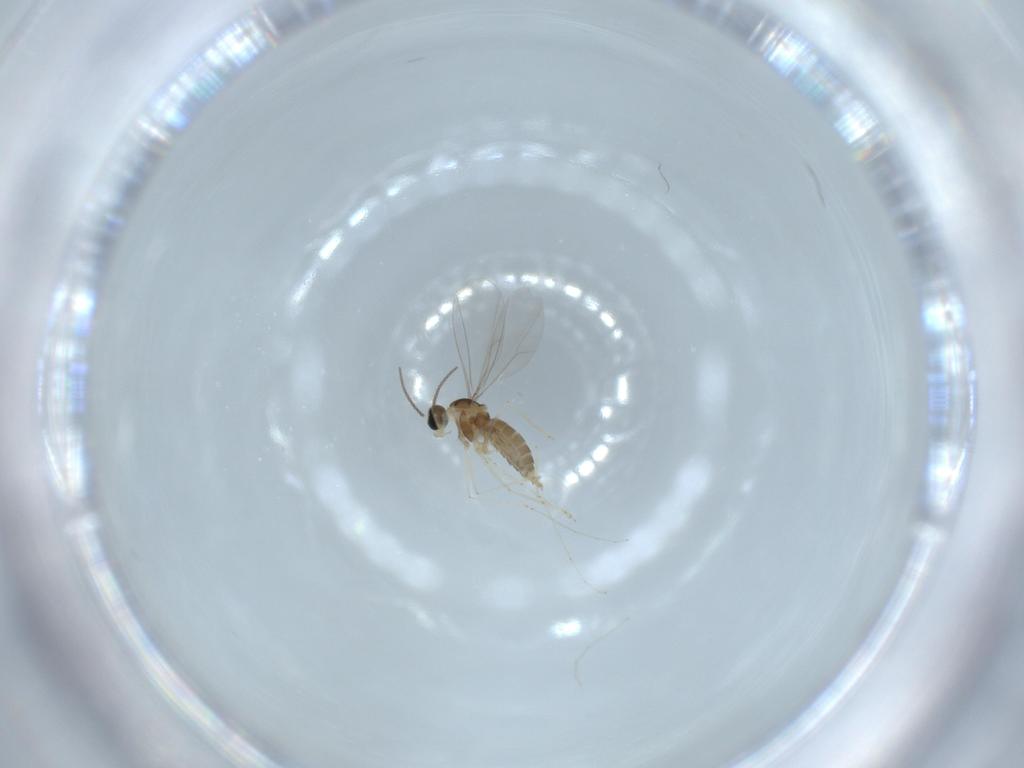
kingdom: Animalia
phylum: Arthropoda
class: Insecta
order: Diptera
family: Cecidomyiidae
